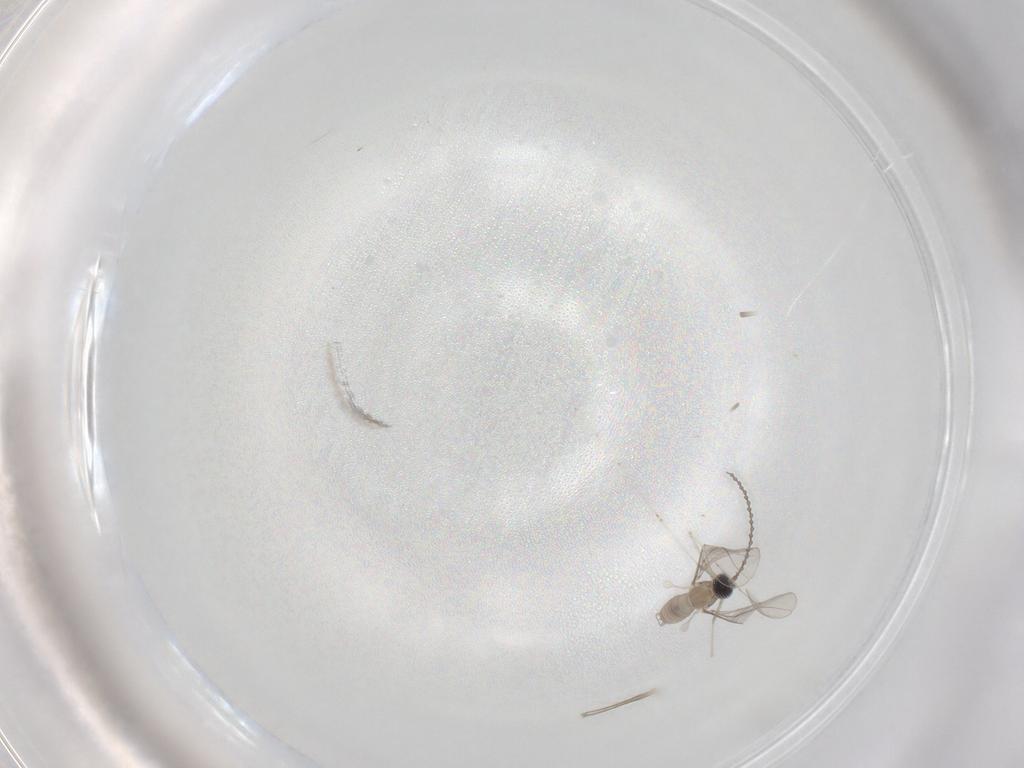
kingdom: Animalia
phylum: Arthropoda
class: Insecta
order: Diptera
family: Cecidomyiidae
